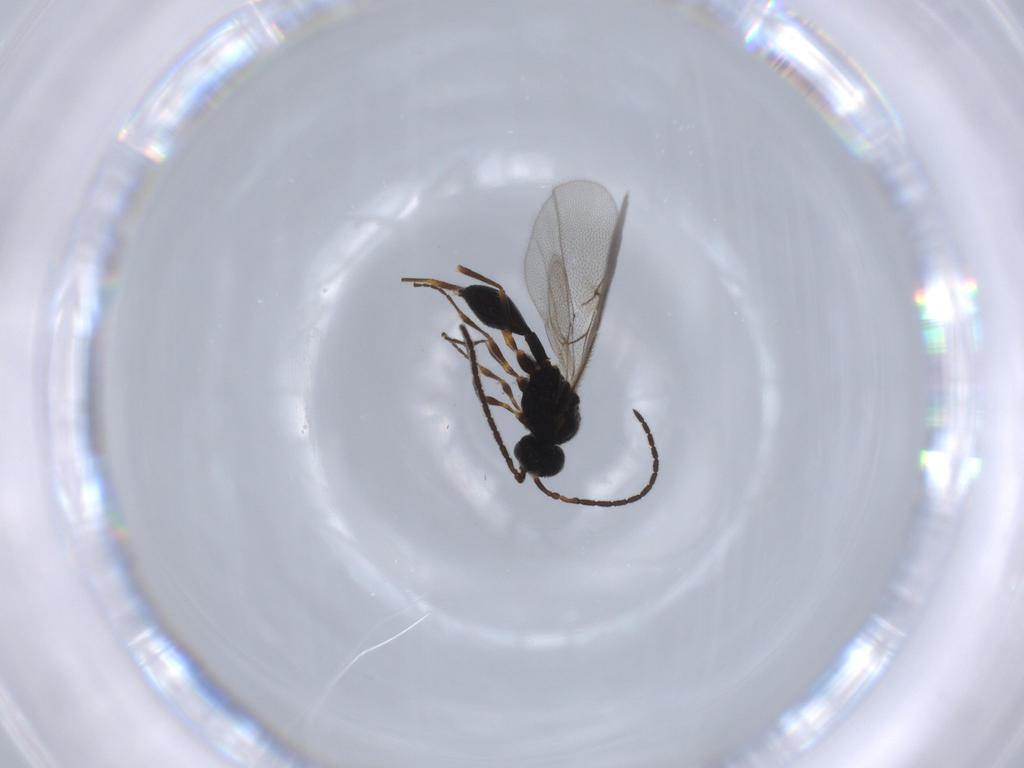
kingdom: Animalia
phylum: Arthropoda
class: Insecta
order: Hymenoptera
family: Diapriidae
